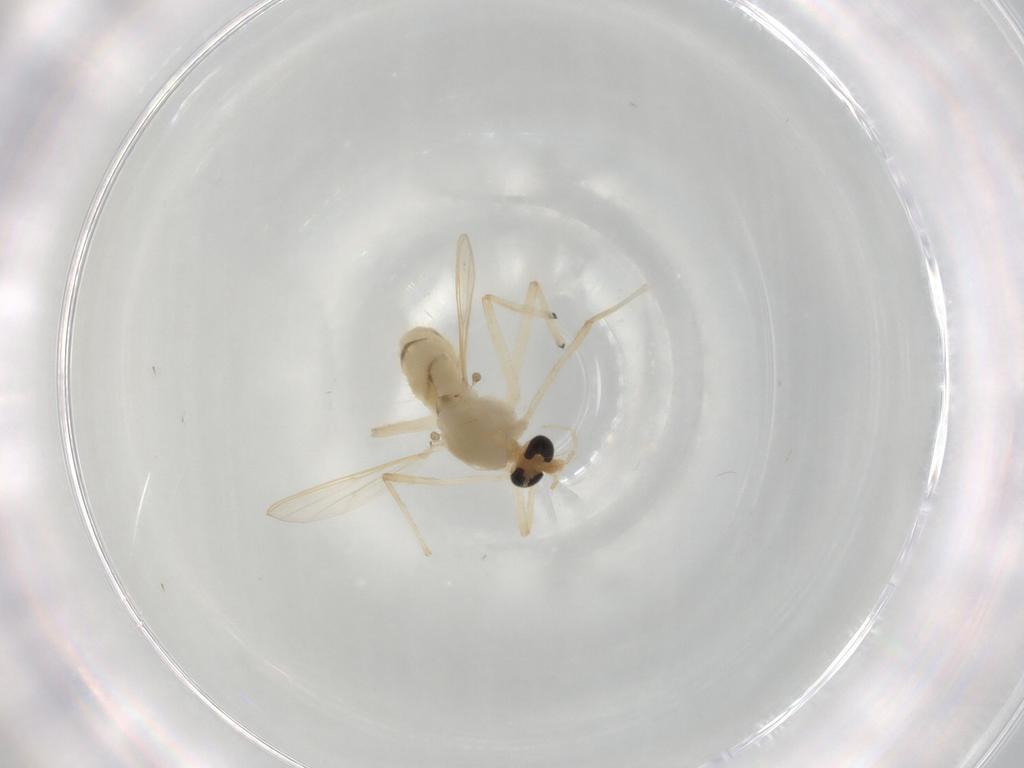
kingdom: Animalia
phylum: Arthropoda
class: Insecta
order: Diptera
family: Chironomidae
